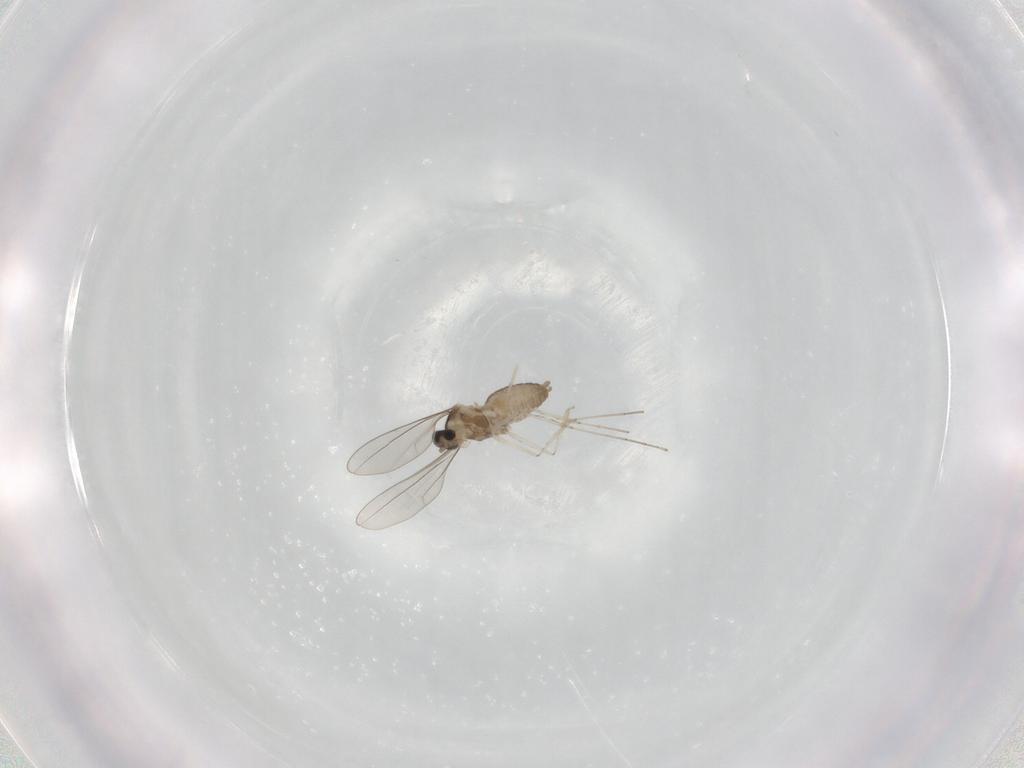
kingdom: Animalia
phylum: Arthropoda
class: Insecta
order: Diptera
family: Cecidomyiidae
